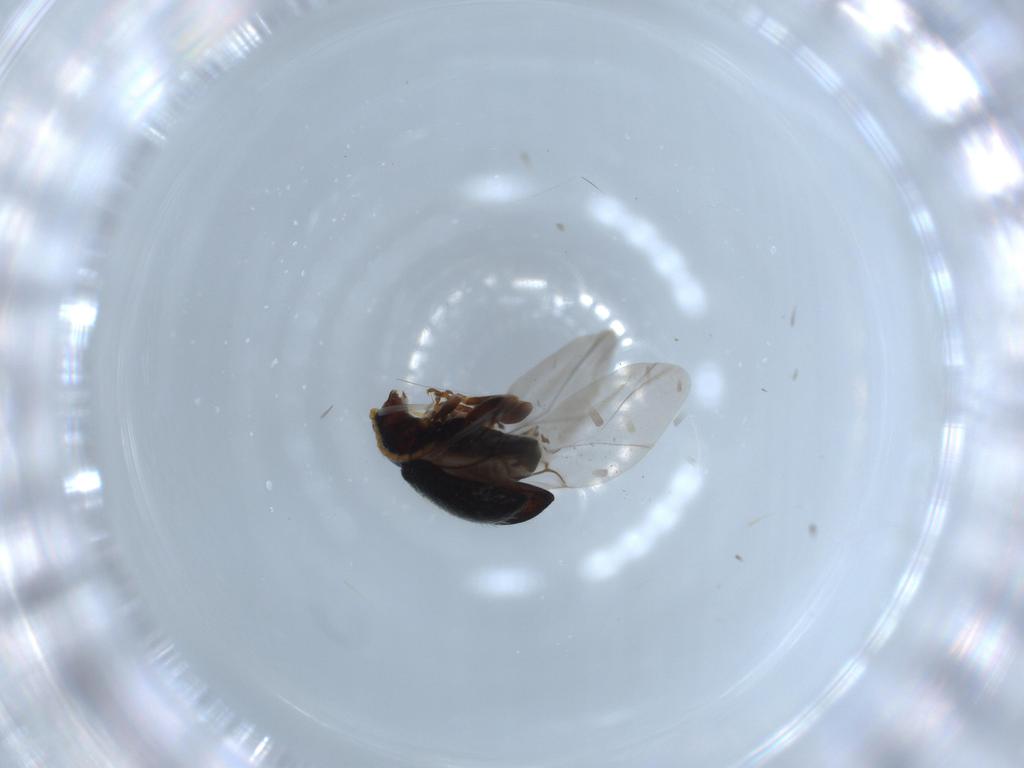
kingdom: Animalia
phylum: Arthropoda
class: Insecta
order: Coleoptera
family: Chrysomelidae
